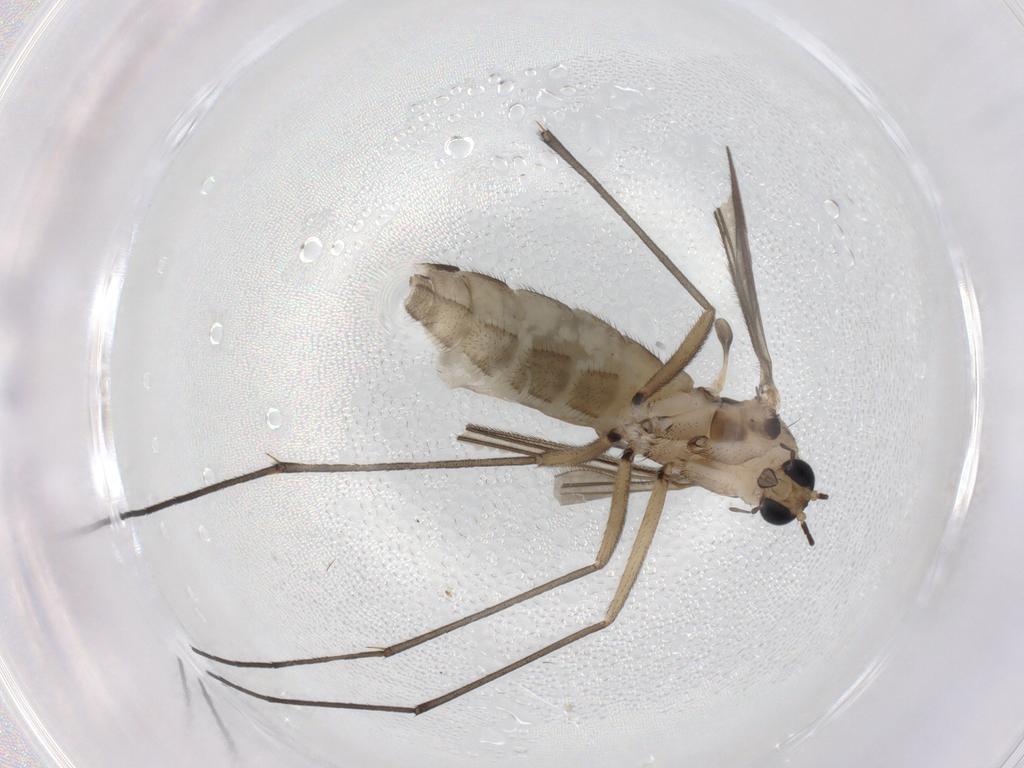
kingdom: Animalia
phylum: Arthropoda
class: Insecta
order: Diptera
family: Sciaridae
